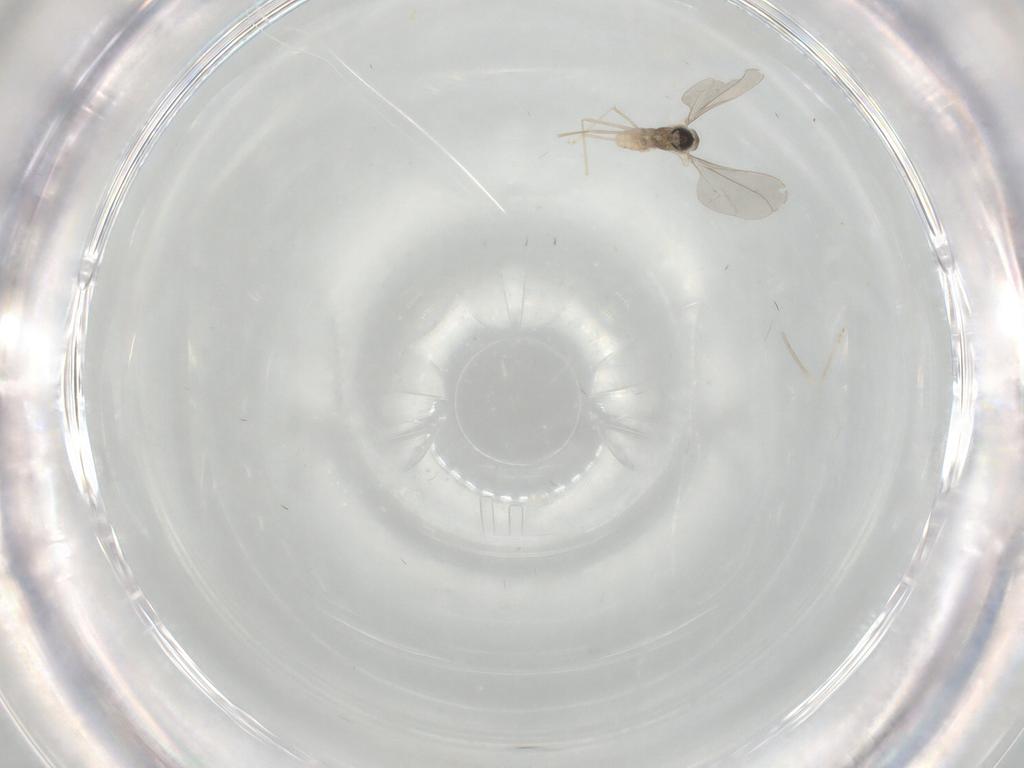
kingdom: Animalia
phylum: Arthropoda
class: Insecta
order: Diptera
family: Cecidomyiidae
